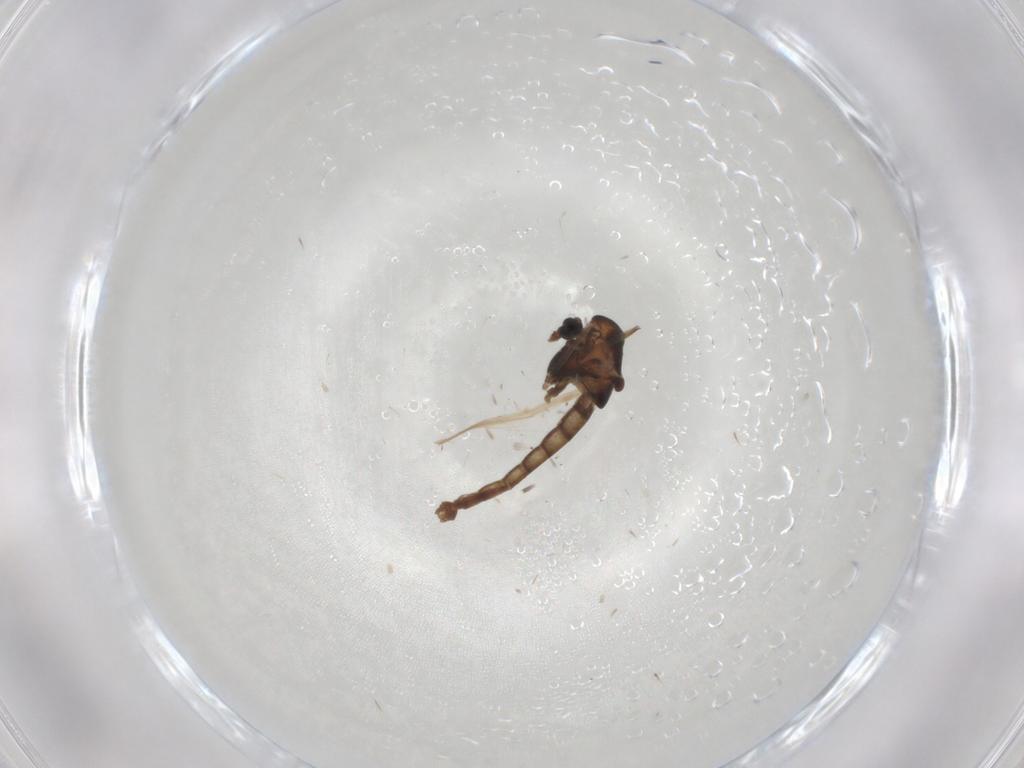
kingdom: Animalia
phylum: Arthropoda
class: Insecta
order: Diptera
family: Chironomidae
